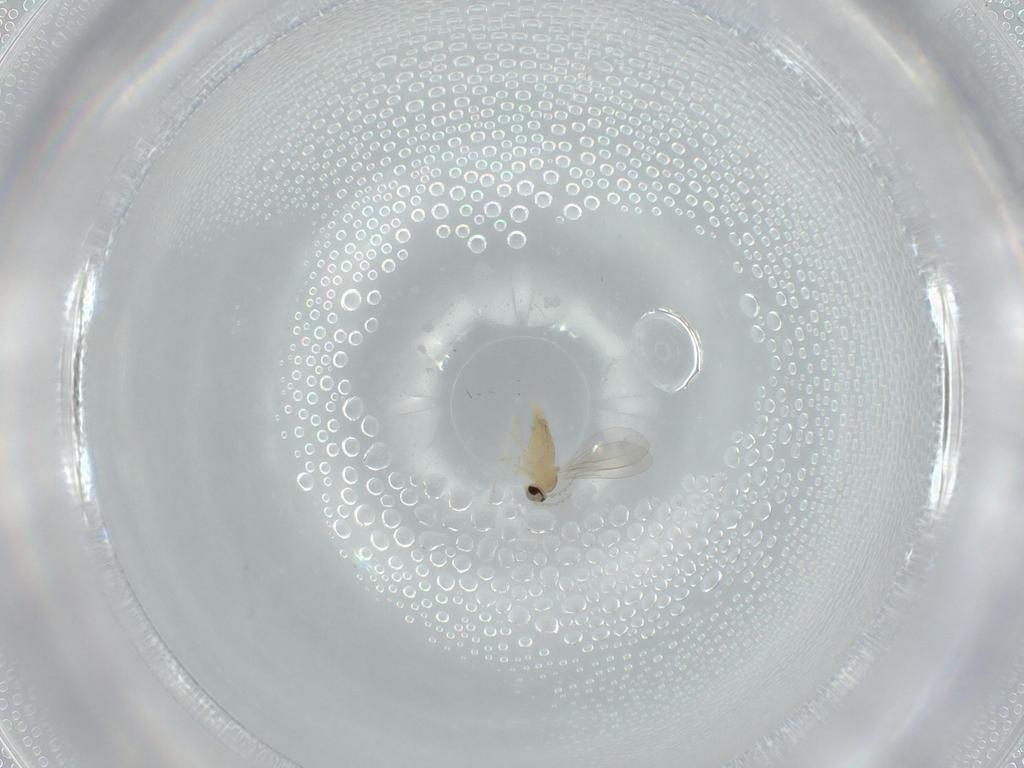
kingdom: Animalia
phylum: Arthropoda
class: Insecta
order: Diptera
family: Cecidomyiidae
